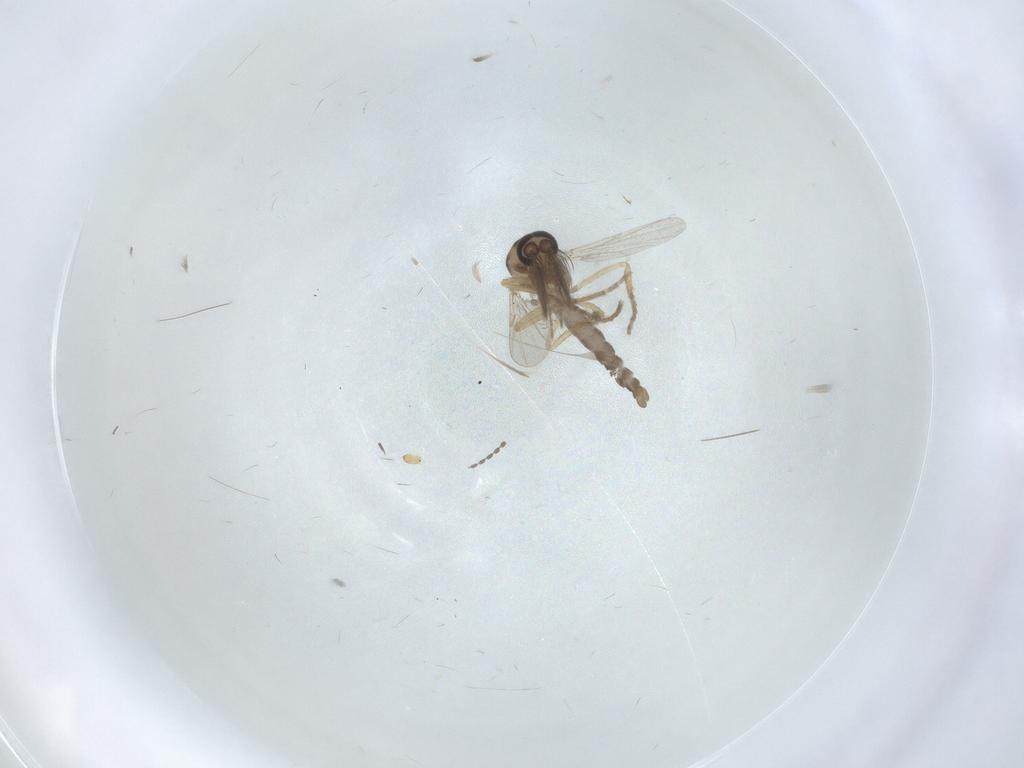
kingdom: Animalia
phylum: Arthropoda
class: Insecta
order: Diptera
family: Ceratopogonidae
